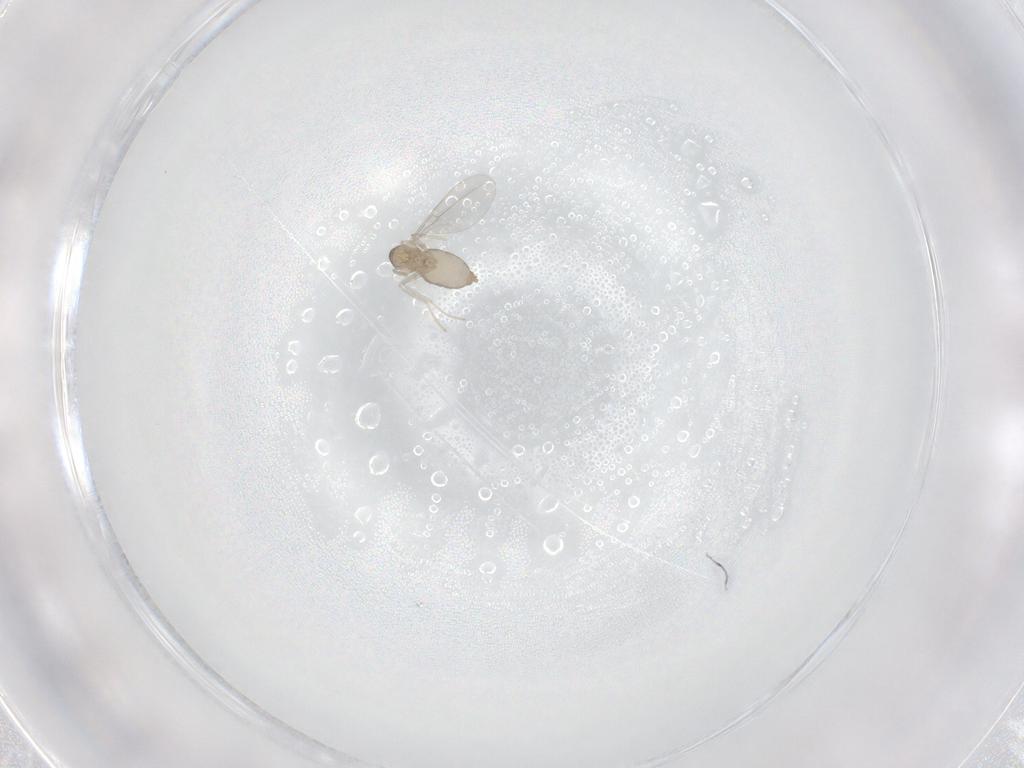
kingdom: Animalia
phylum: Arthropoda
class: Insecta
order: Diptera
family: Cecidomyiidae
